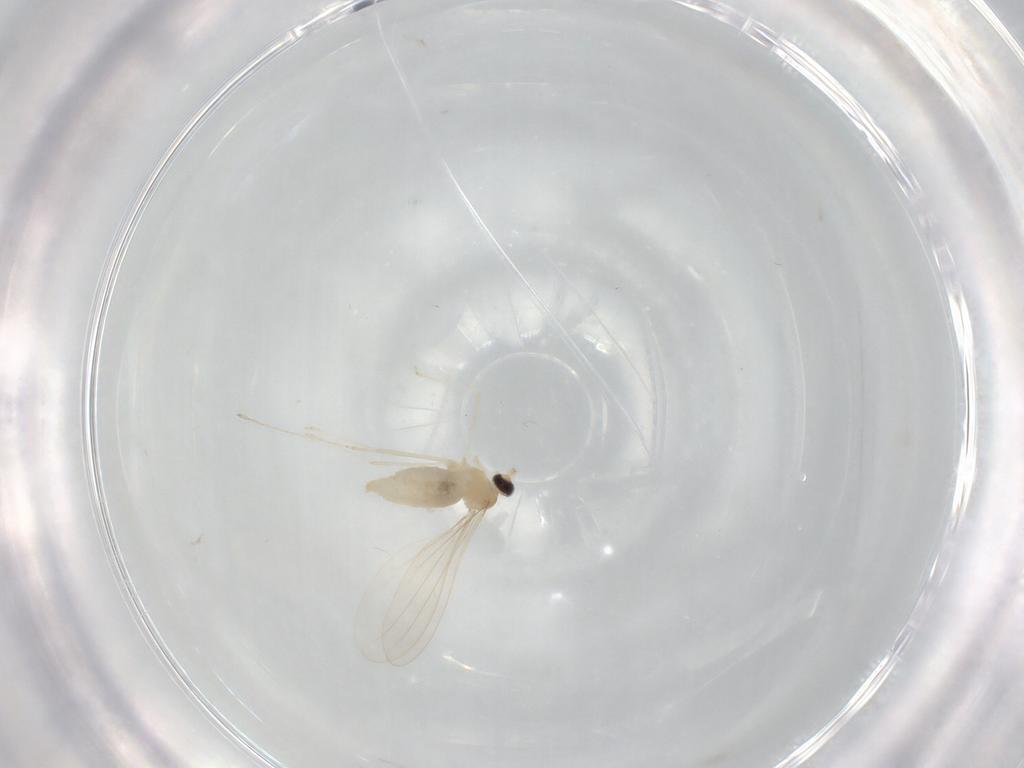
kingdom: Animalia
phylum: Arthropoda
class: Insecta
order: Diptera
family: Cecidomyiidae
